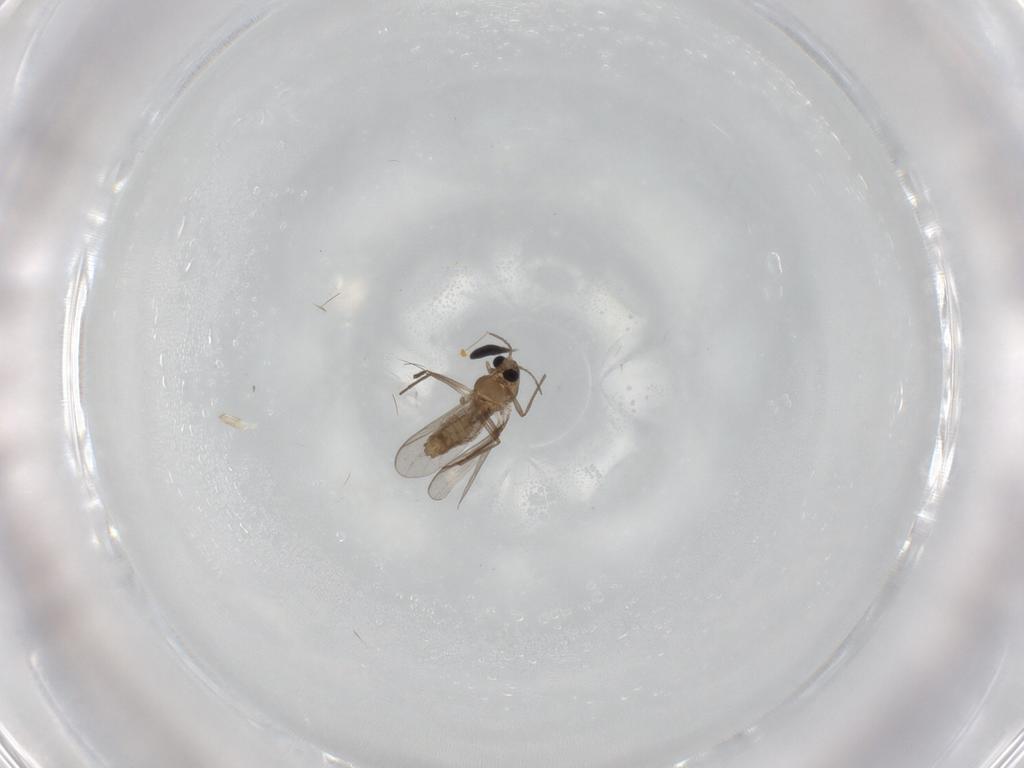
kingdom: Animalia
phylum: Arthropoda
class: Insecta
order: Diptera
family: Chironomidae
